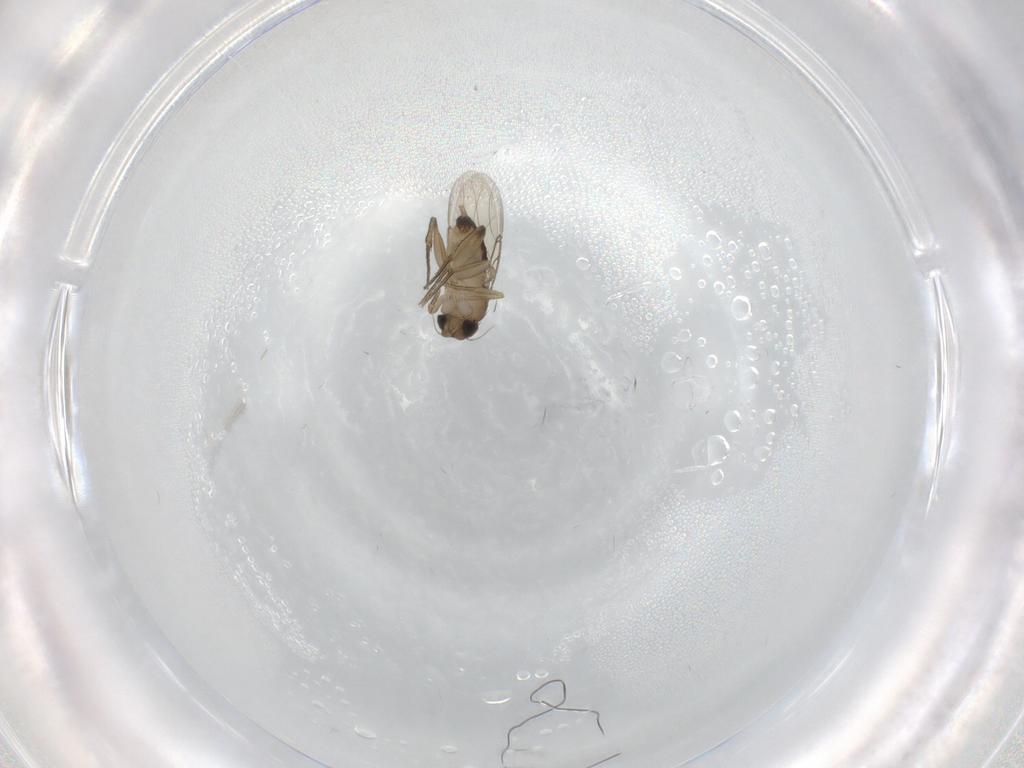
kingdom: Animalia
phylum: Arthropoda
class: Insecta
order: Diptera
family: Phoridae
